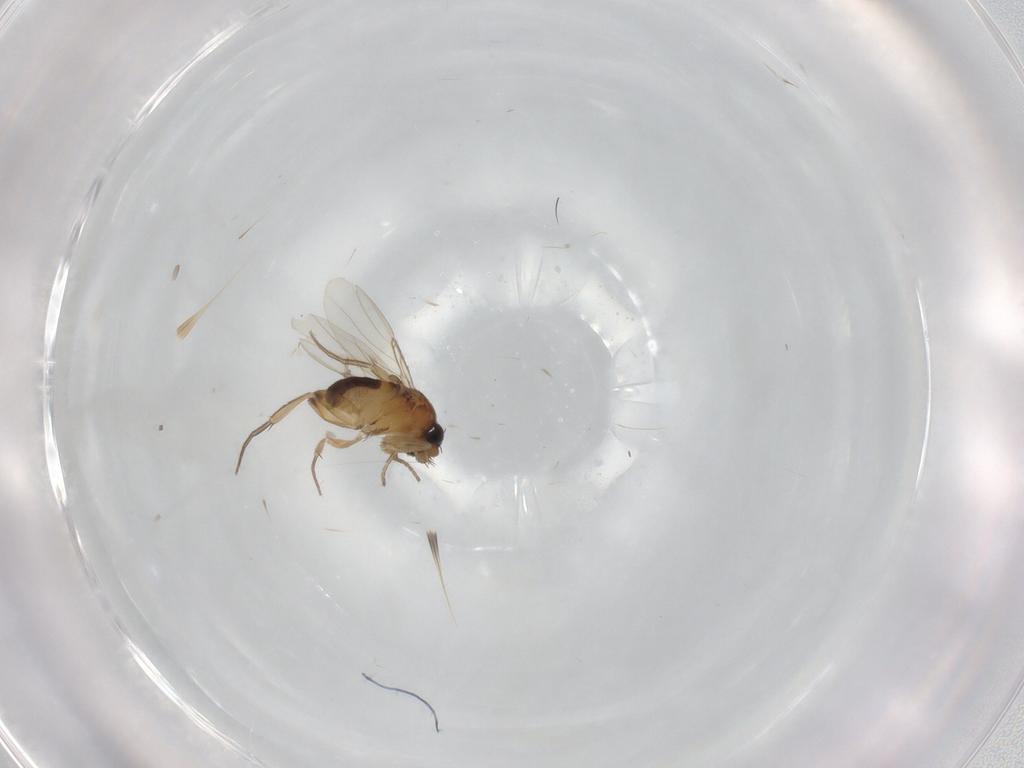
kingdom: Animalia
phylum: Arthropoda
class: Insecta
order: Diptera
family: Phoridae
